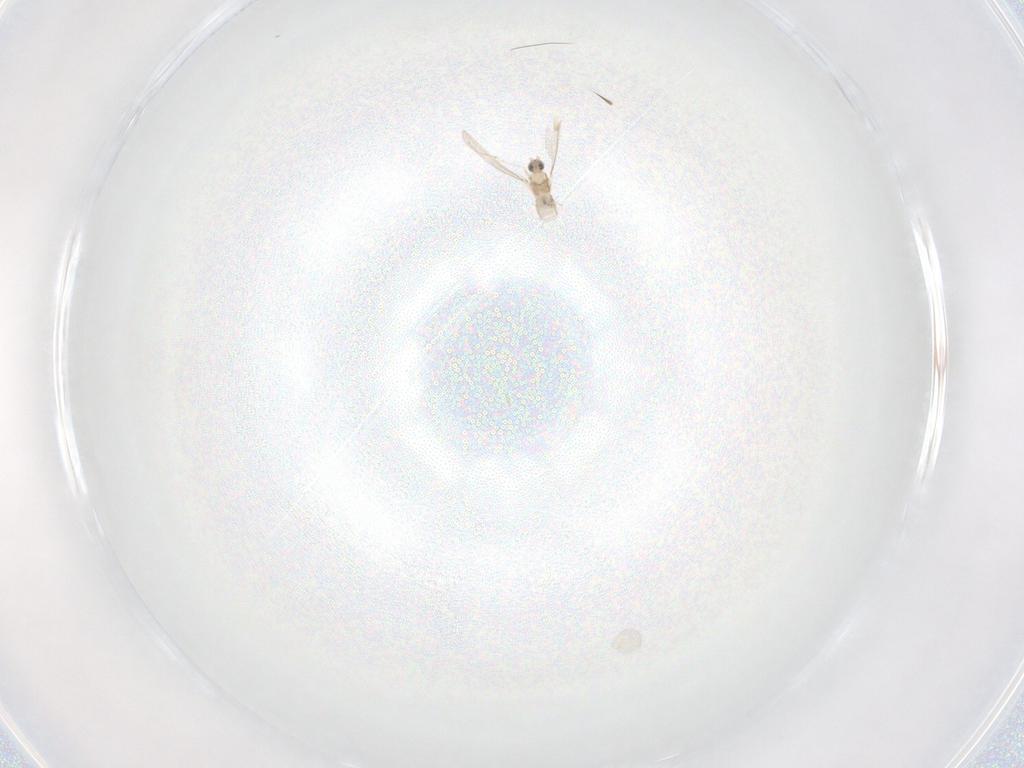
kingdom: Animalia
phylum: Arthropoda
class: Insecta
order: Diptera
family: Cecidomyiidae
